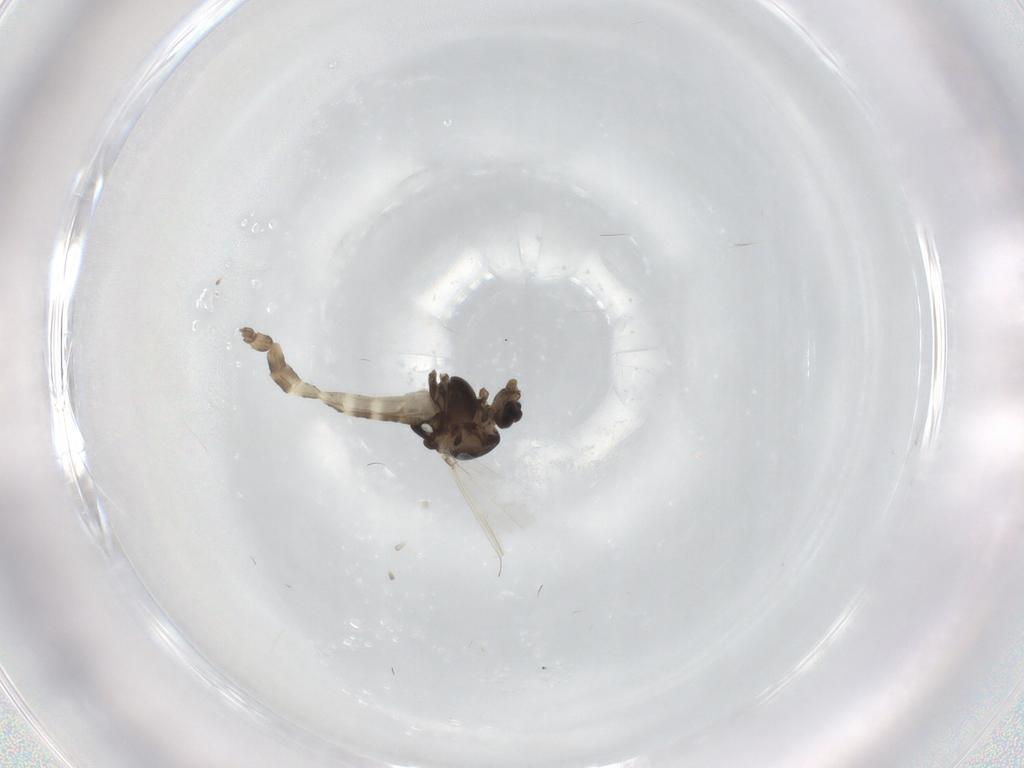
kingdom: Animalia
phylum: Arthropoda
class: Insecta
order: Diptera
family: Chironomidae
